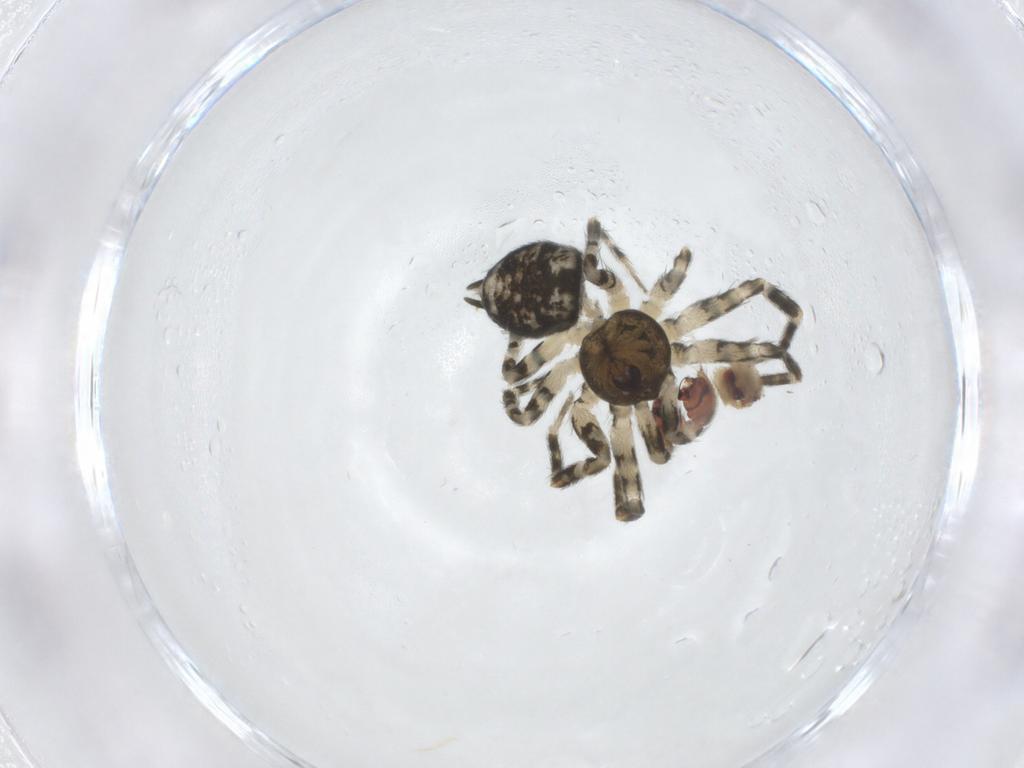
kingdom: Animalia
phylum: Arthropoda
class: Arachnida
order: Araneae
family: Oecobiidae
